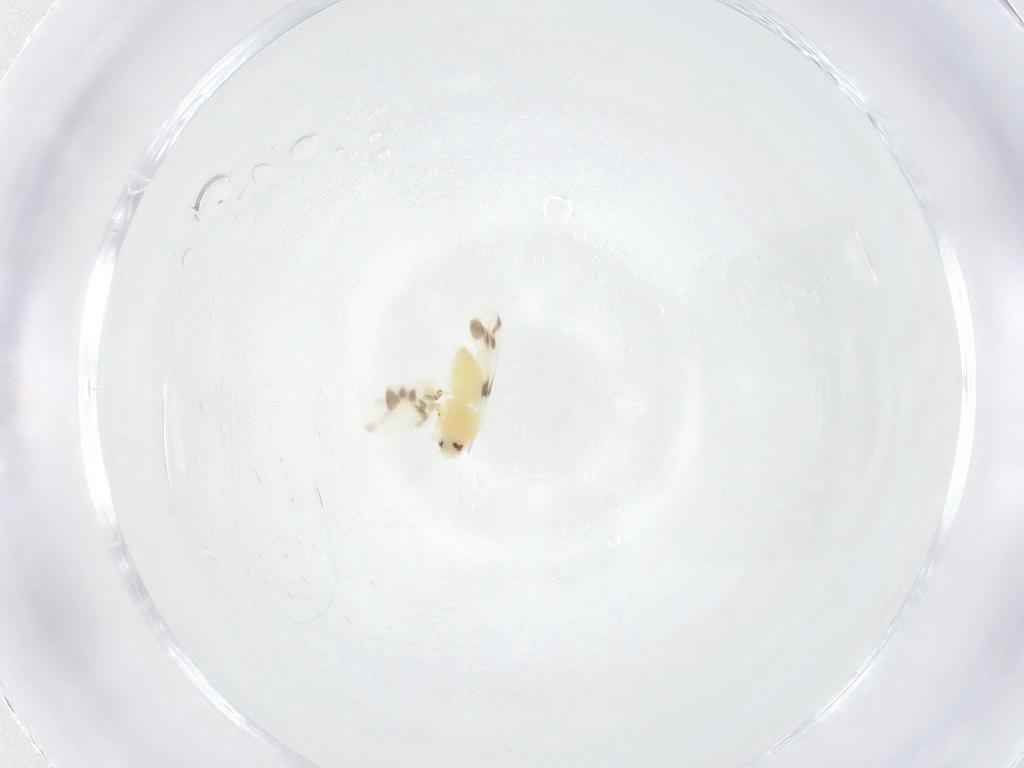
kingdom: Animalia
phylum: Arthropoda
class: Insecta
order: Hemiptera
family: Aleyrodidae
